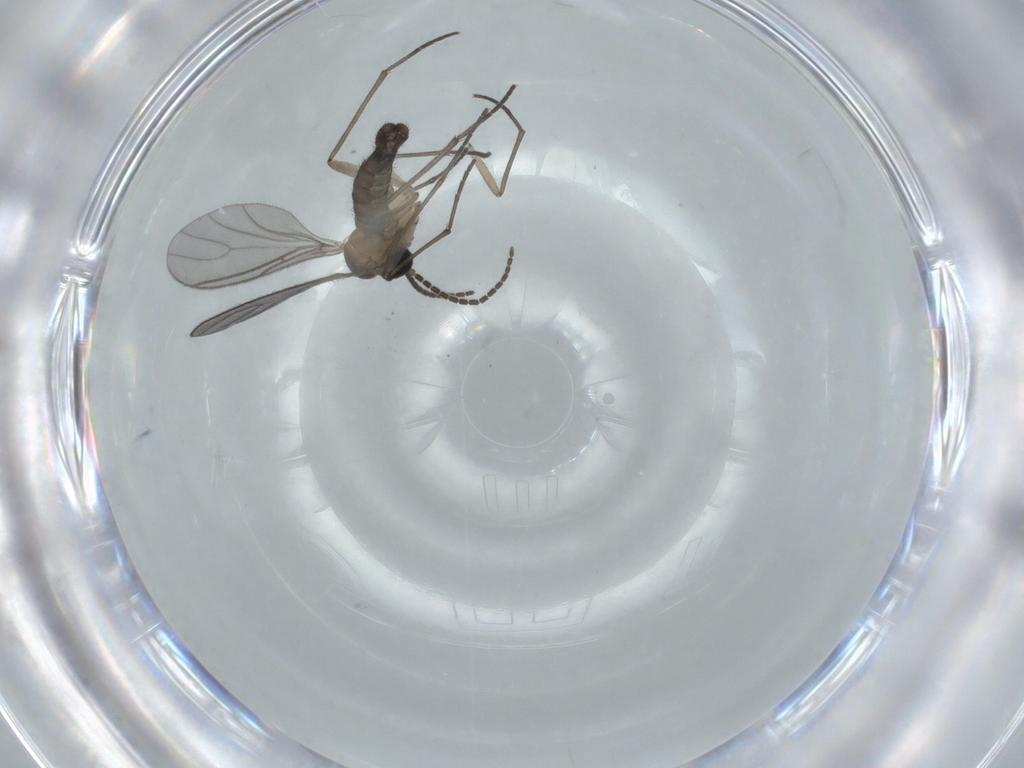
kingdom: Animalia
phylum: Arthropoda
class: Insecta
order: Diptera
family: Sciaridae
